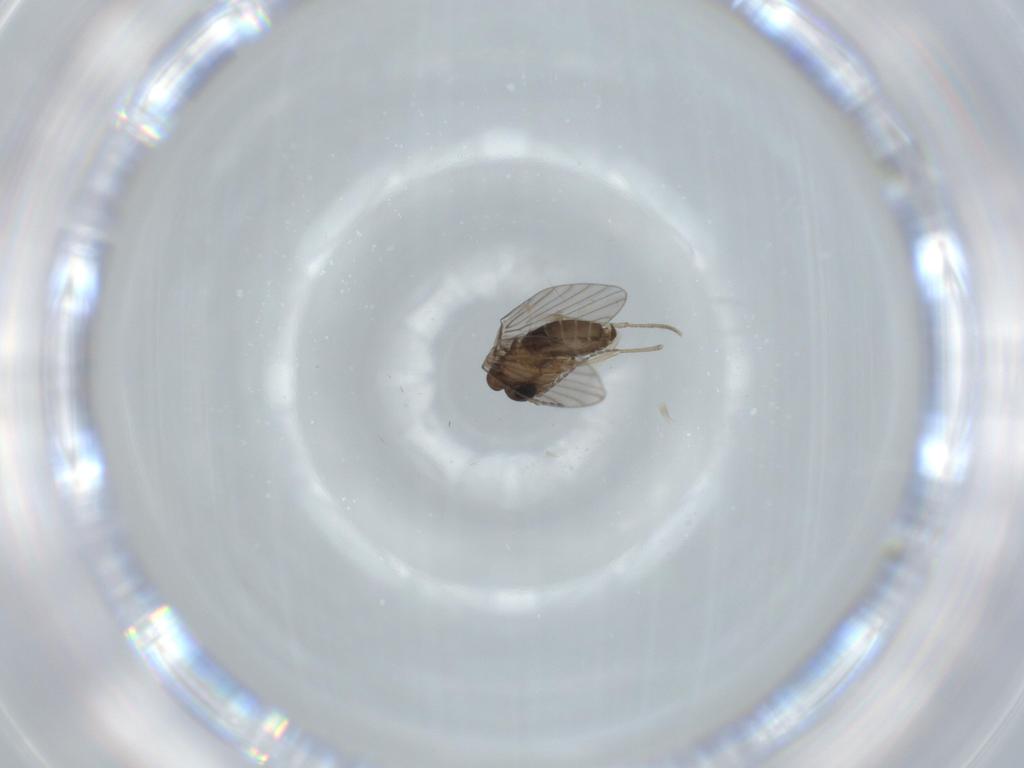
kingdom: Animalia
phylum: Arthropoda
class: Insecta
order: Diptera
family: Psychodidae
